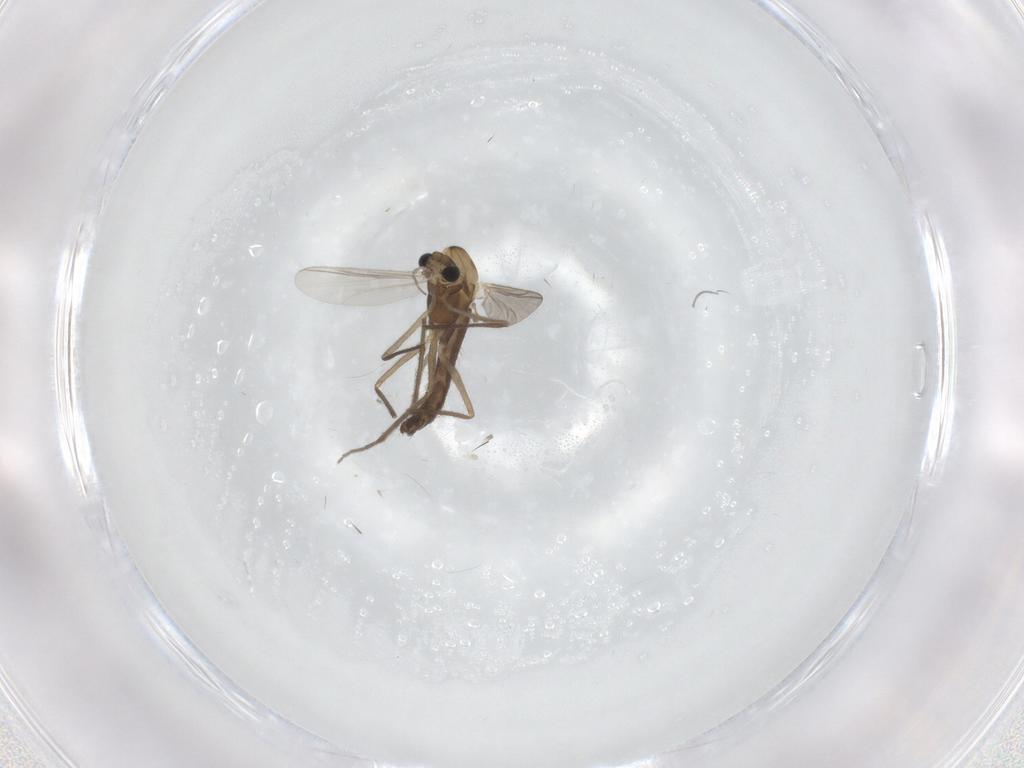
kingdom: Animalia
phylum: Arthropoda
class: Insecta
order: Diptera
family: Chironomidae
